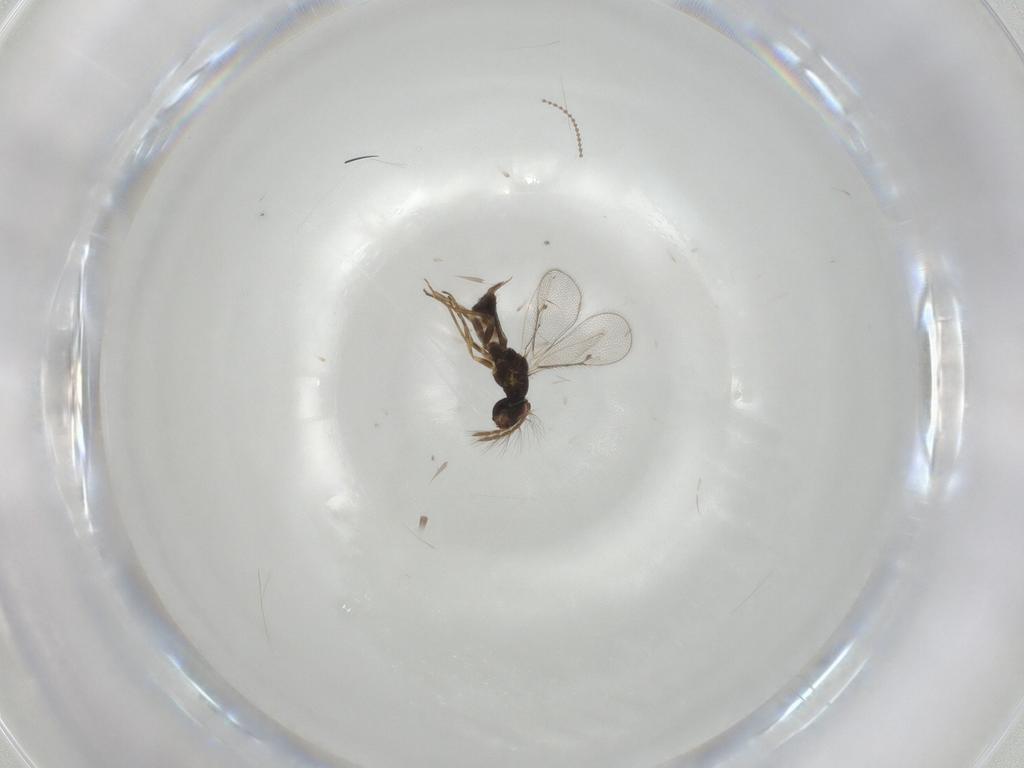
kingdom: Animalia
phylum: Arthropoda
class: Insecta
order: Hymenoptera
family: Eulophidae
